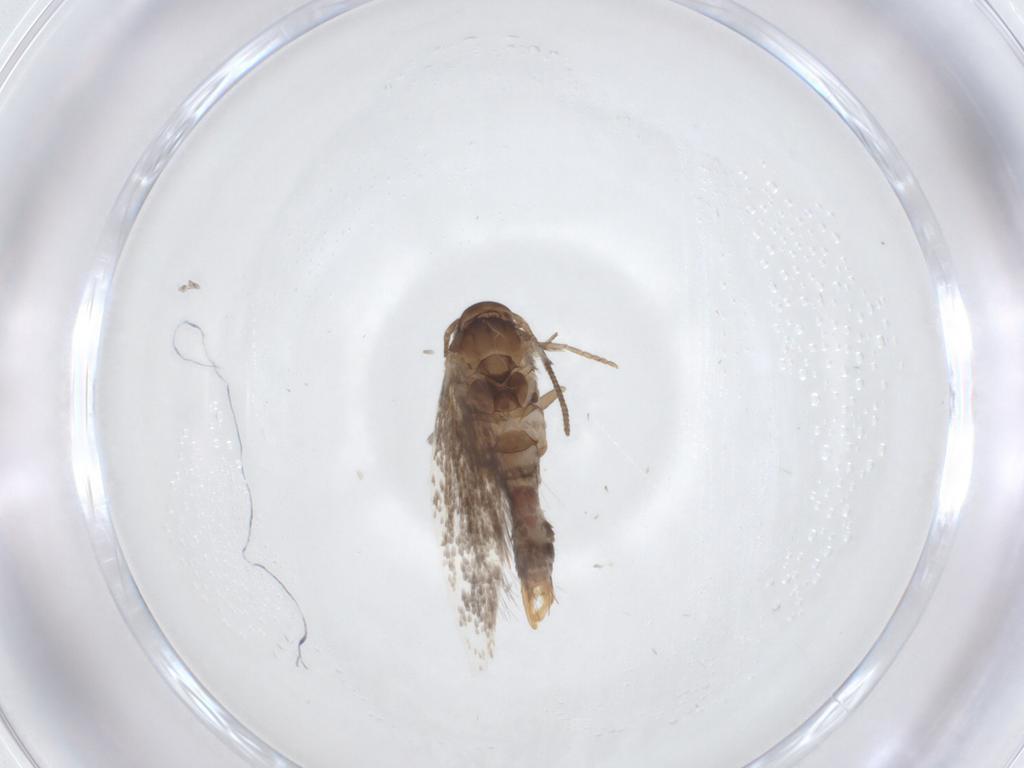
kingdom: Animalia
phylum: Arthropoda
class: Insecta
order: Lepidoptera
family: Elachistidae
